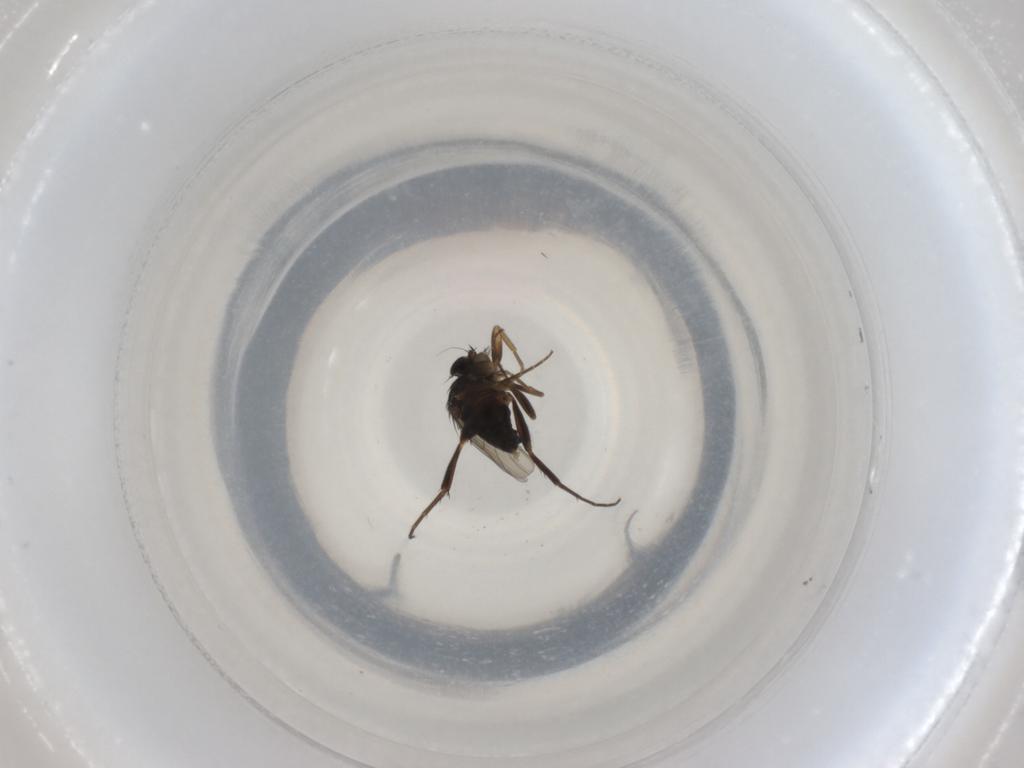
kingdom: Animalia
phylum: Arthropoda
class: Insecta
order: Diptera
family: Phoridae
